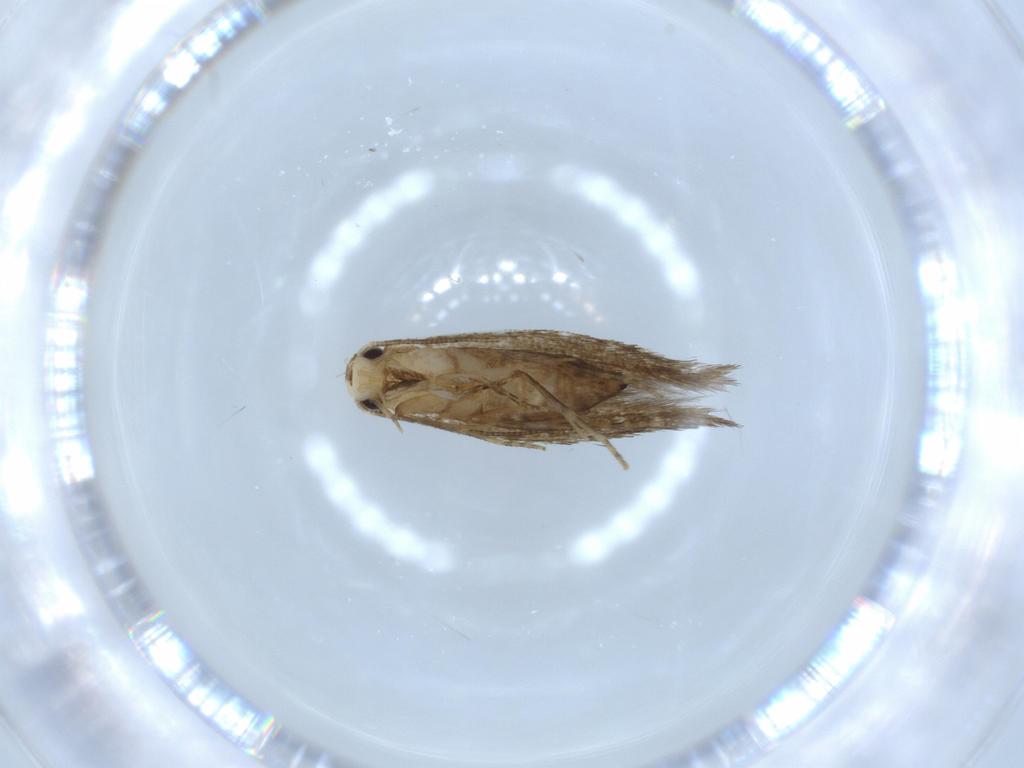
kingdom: Animalia
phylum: Arthropoda
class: Insecta
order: Lepidoptera
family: Tineidae
